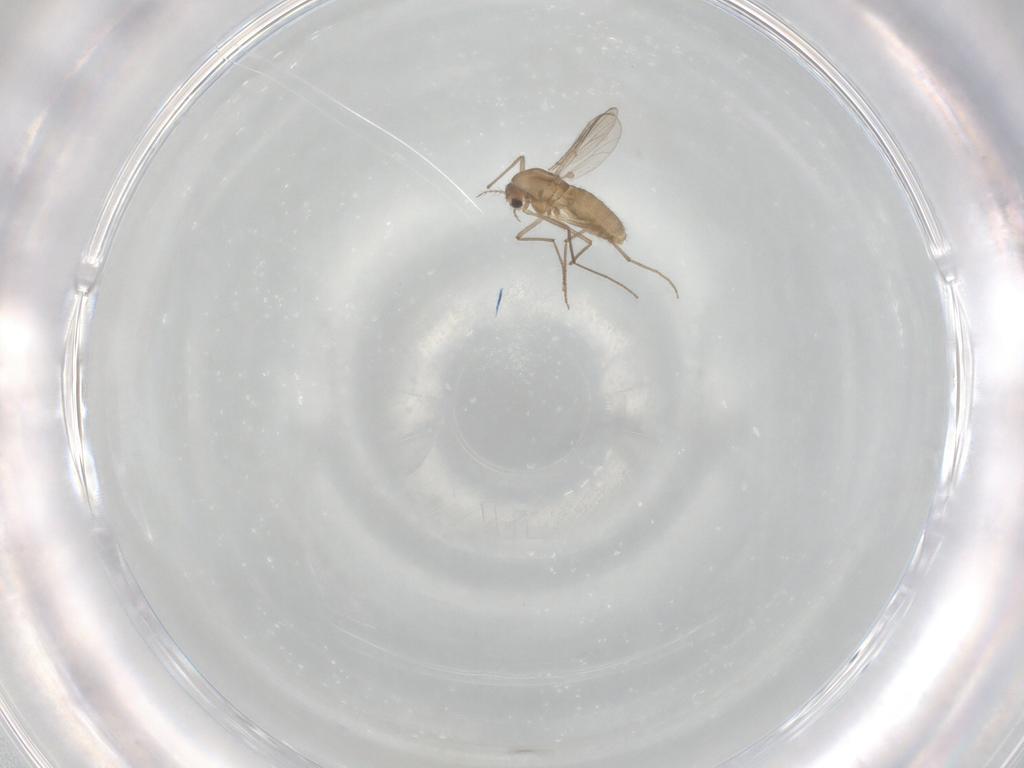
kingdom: Animalia
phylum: Arthropoda
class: Insecta
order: Diptera
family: Chironomidae
